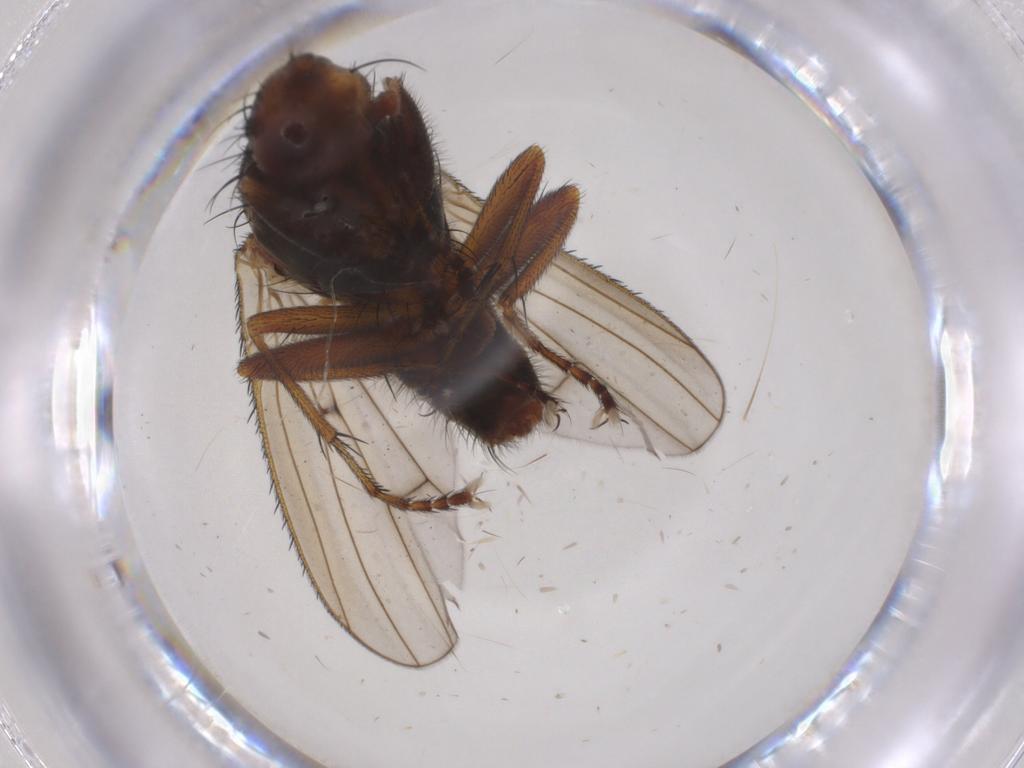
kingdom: Animalia
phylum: Arthropoda
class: Insecta
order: Diptera
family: Heleomyzidae
